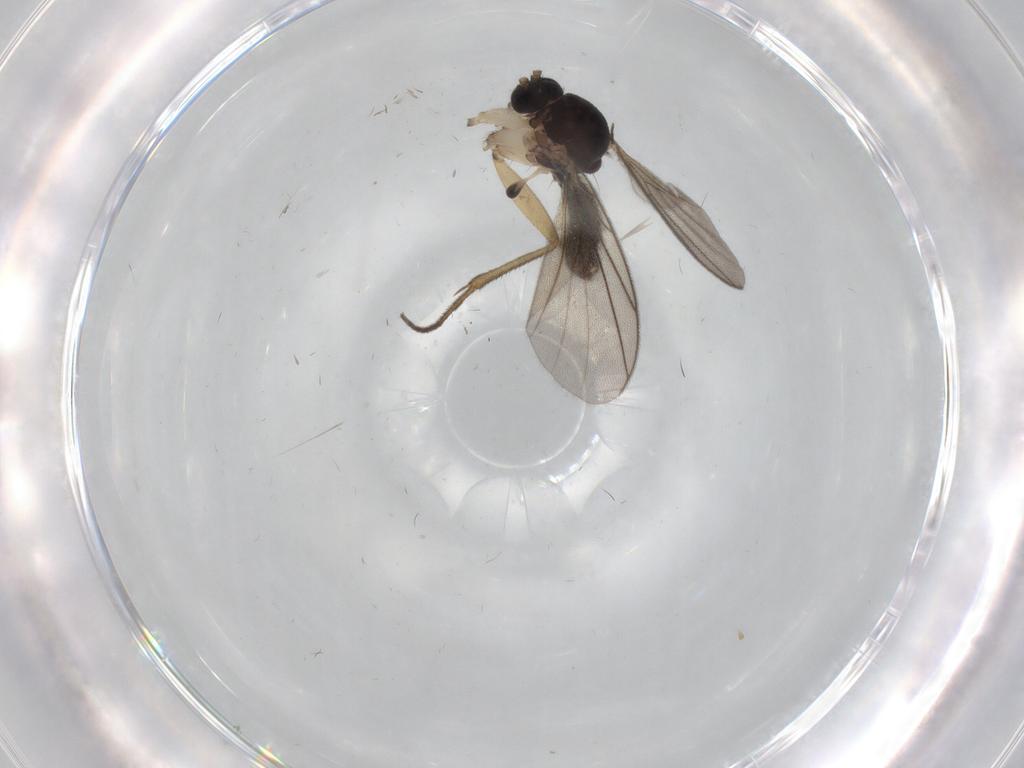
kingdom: Animalia
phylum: Arthropoda
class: Insecta
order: Diptera
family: Mycetophilidae
